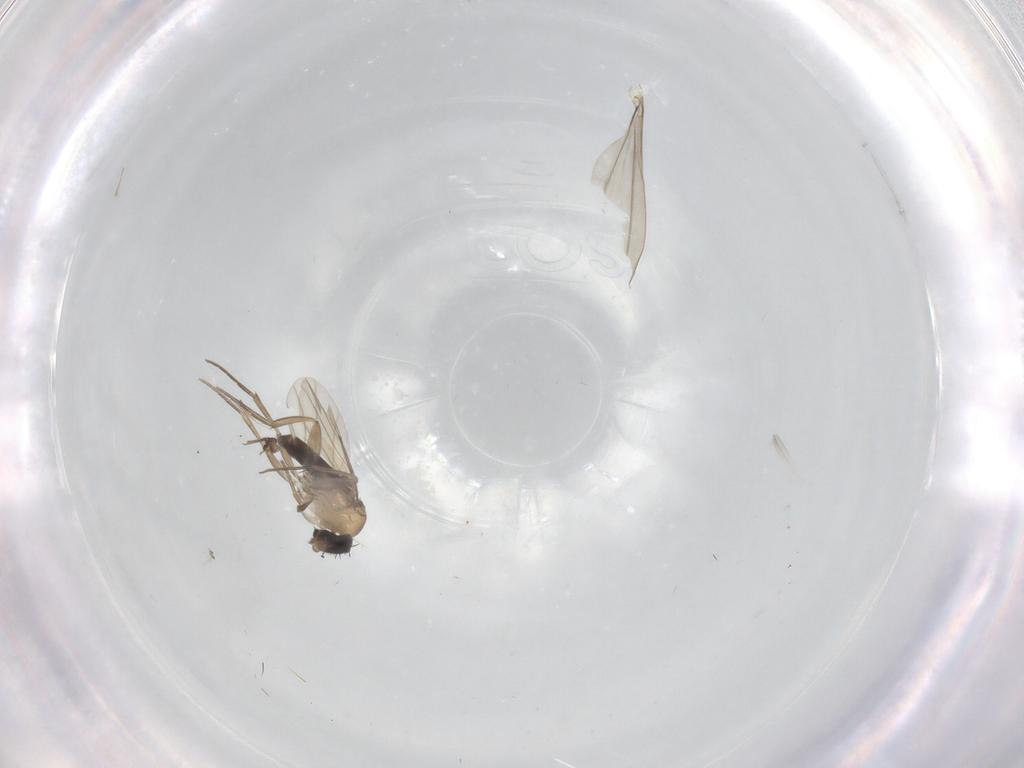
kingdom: Animalia
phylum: Arthropoda
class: Insecta
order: Diptera
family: Phoridae
